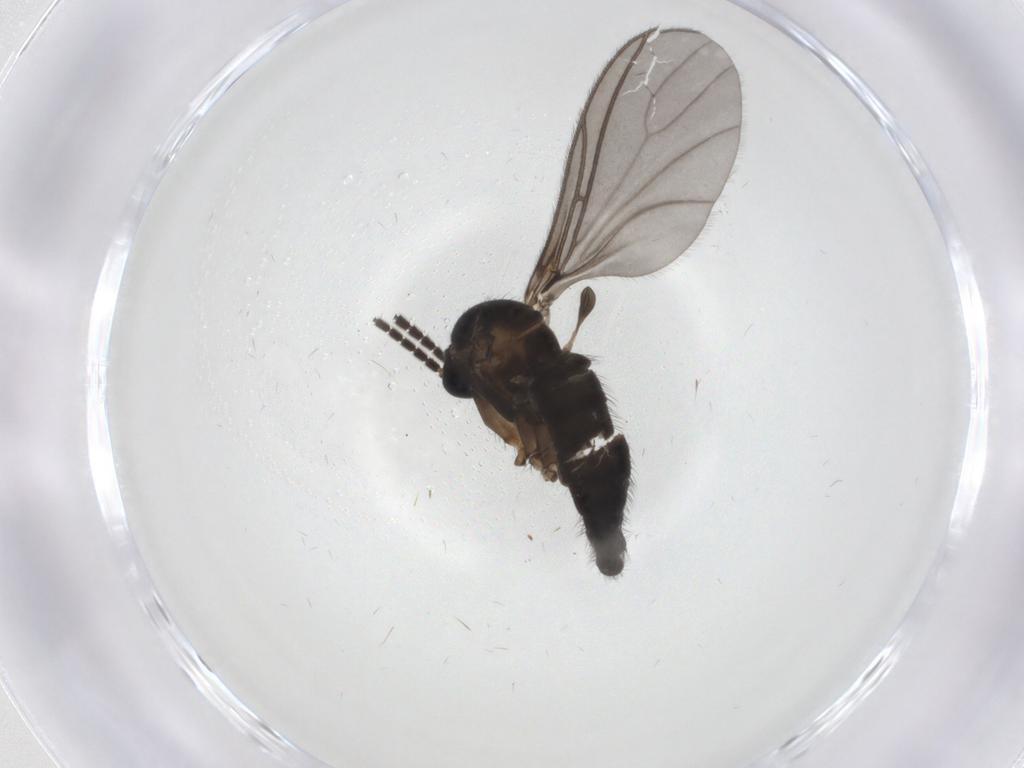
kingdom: Animalia
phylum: Arthropoda
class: Insecta
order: Diptera
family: Sciaridae
